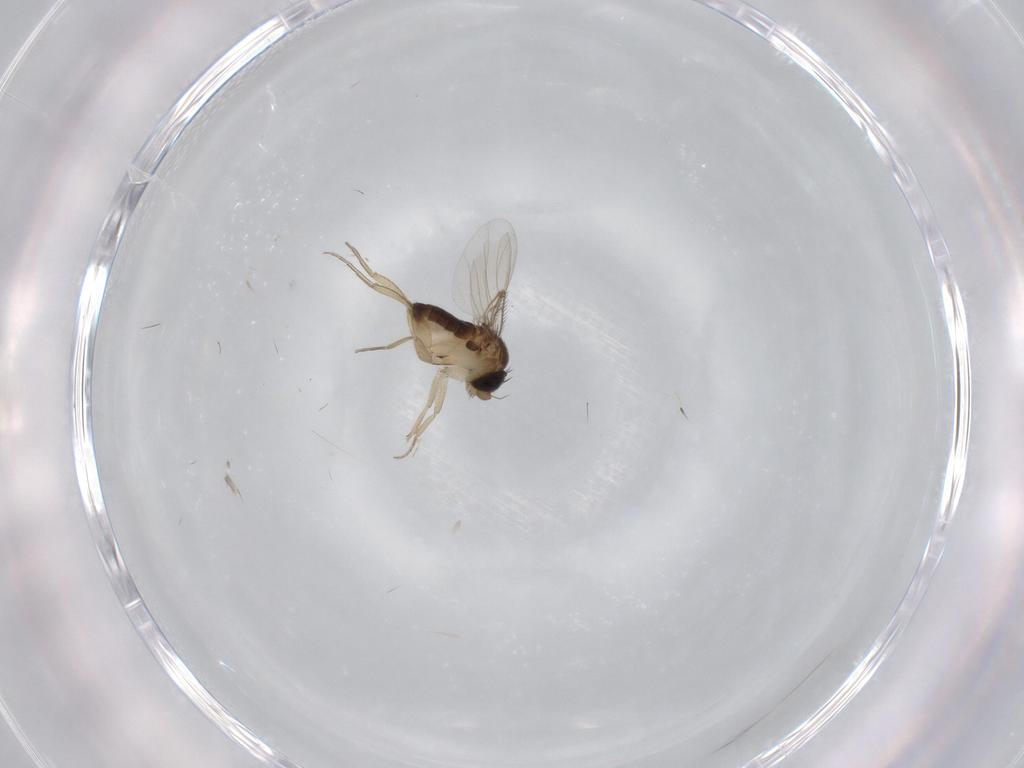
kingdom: Animalia
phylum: Arthropoda
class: Insecta
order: Diptera
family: Phoridae
